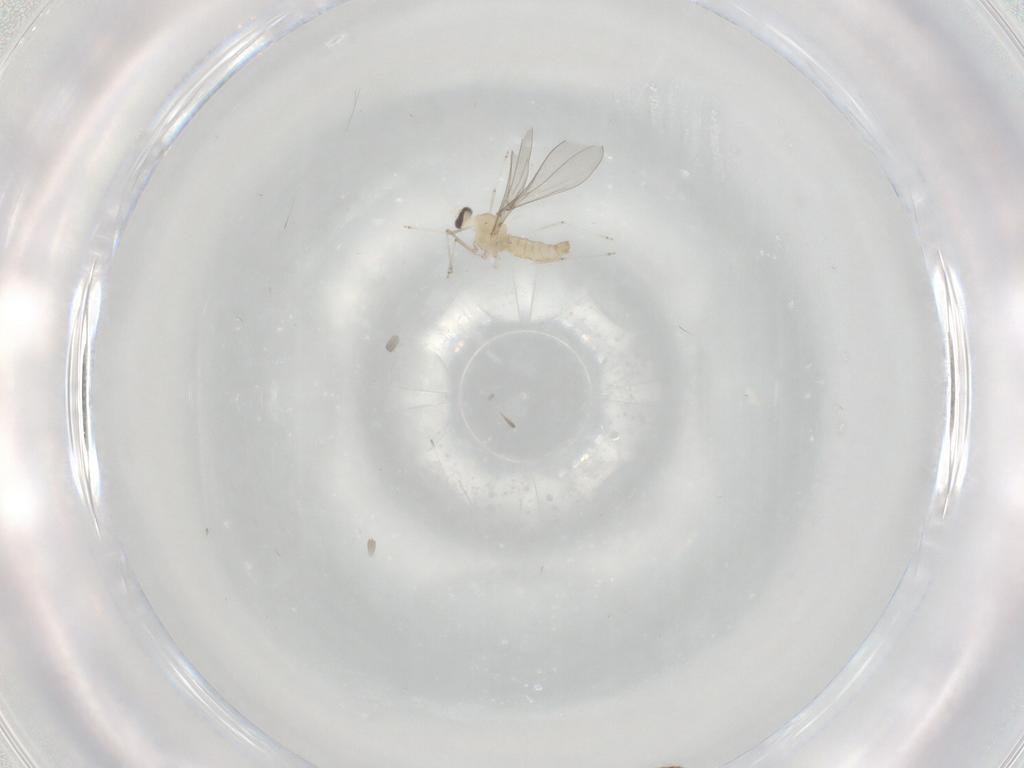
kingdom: Animalia
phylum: Arthropoda
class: Insecta
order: Diptera
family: Cecidomyiidae
